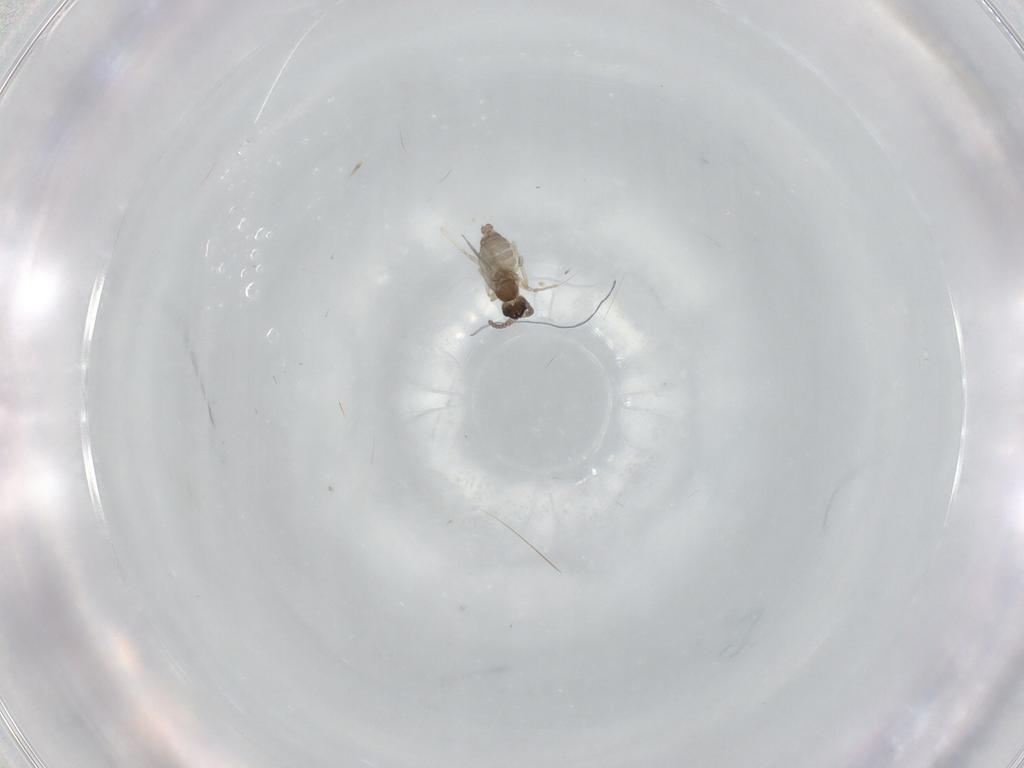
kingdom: Animalia
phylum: Arthropoda
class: Insecta
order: Diptera
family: Cecidomyiidae
